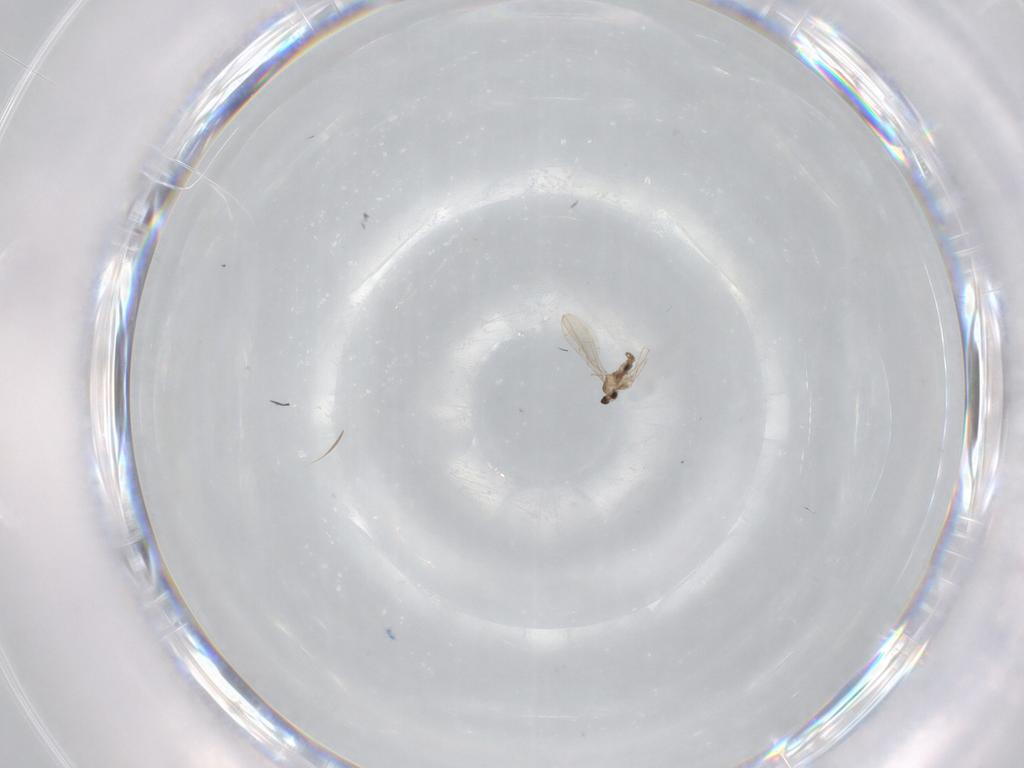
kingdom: Animalia
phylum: Arthropoda
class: Insecta
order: Diptera
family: Cecidomyiidae
